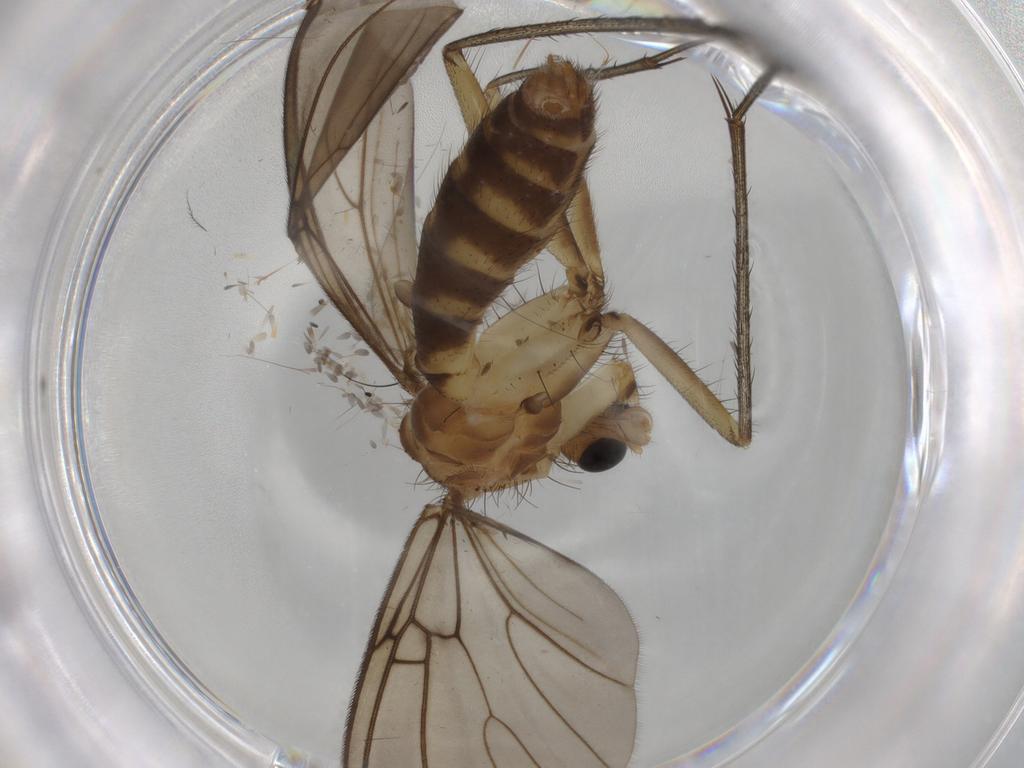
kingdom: Animalia
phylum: Arthropoda
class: Insecta
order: Diptera
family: Mycetophilidae
